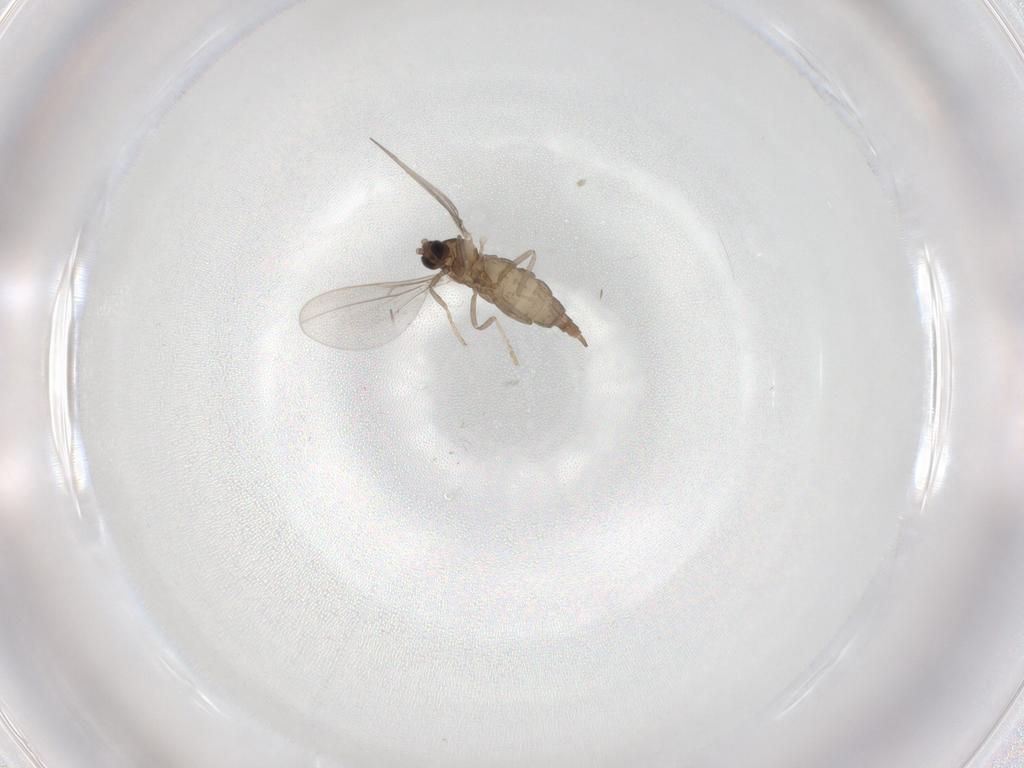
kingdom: Animalia
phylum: Arthropoda
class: Insecta
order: Diptera
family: Cecidomyiidae
